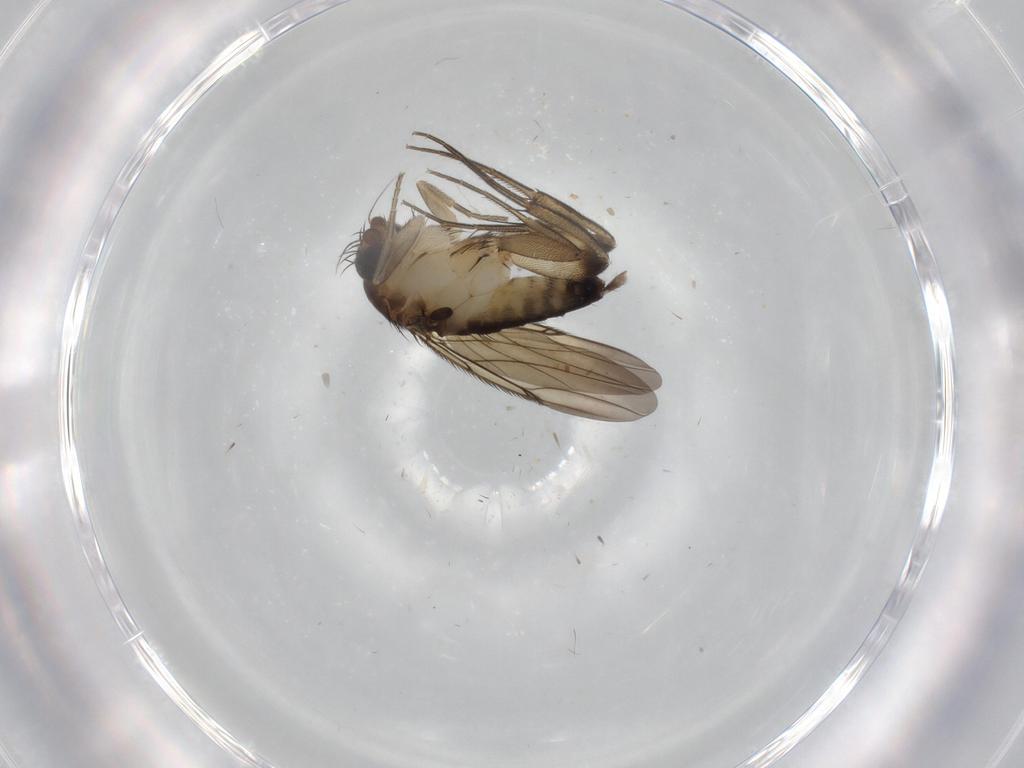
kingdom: Animalia
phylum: Arthropoda
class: Insecta
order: Diptera
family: Phoridae
